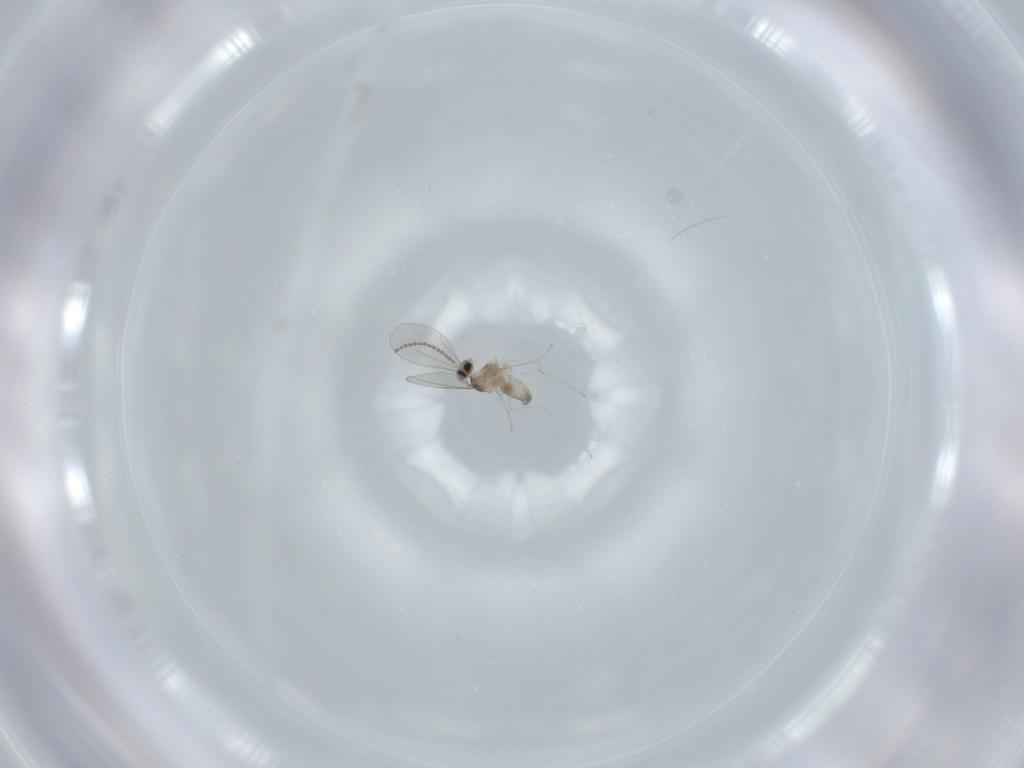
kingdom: Animalia
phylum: Arthropoda
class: Insecta
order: Diptera
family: Cecidomyiidae
